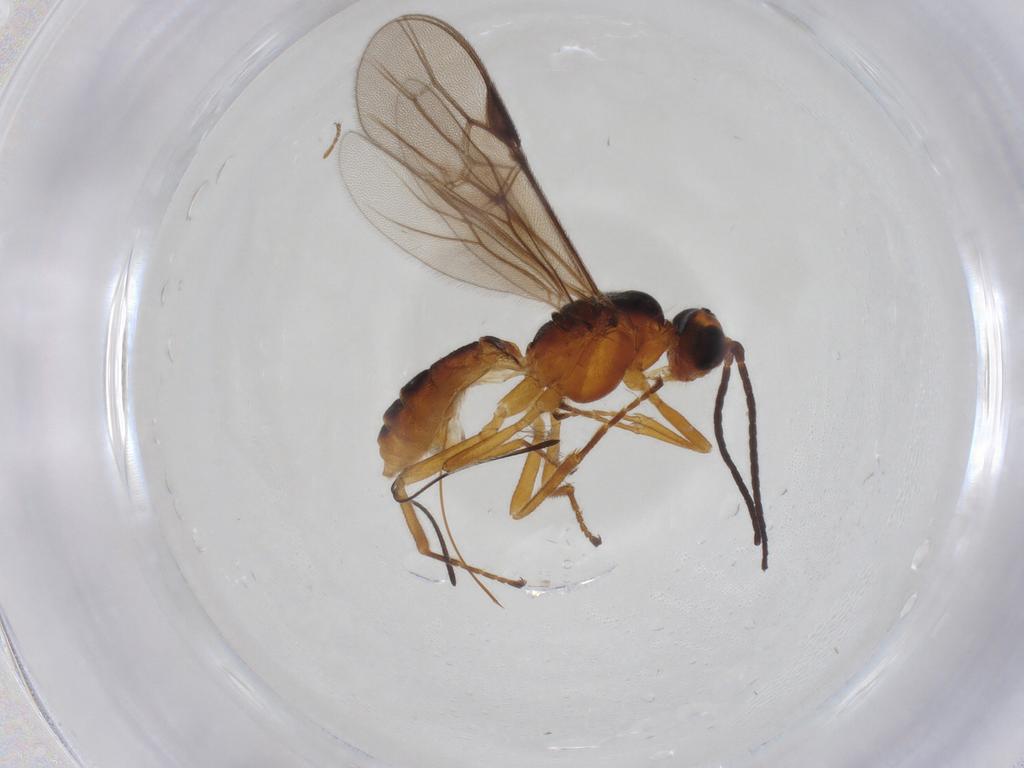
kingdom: Animalia
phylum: Arthropoda
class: Insecta
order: Hymenoptera
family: Braconidae
